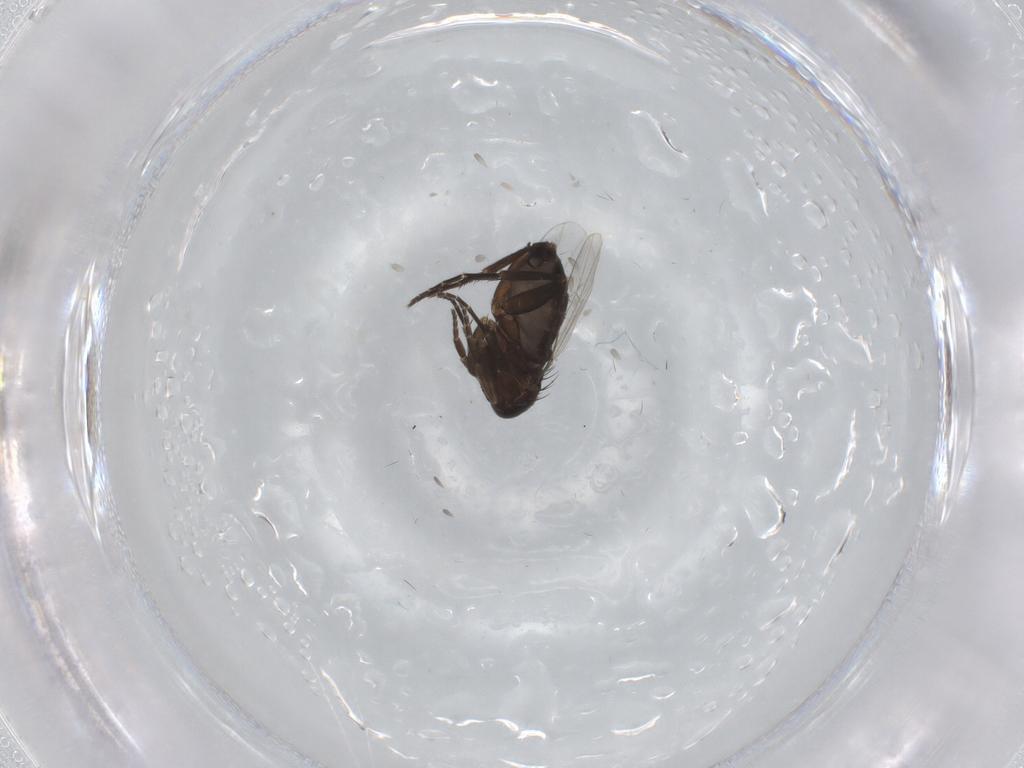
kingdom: Animalia
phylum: Arthropoda
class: Insecta
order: Diptera
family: Phoridae
